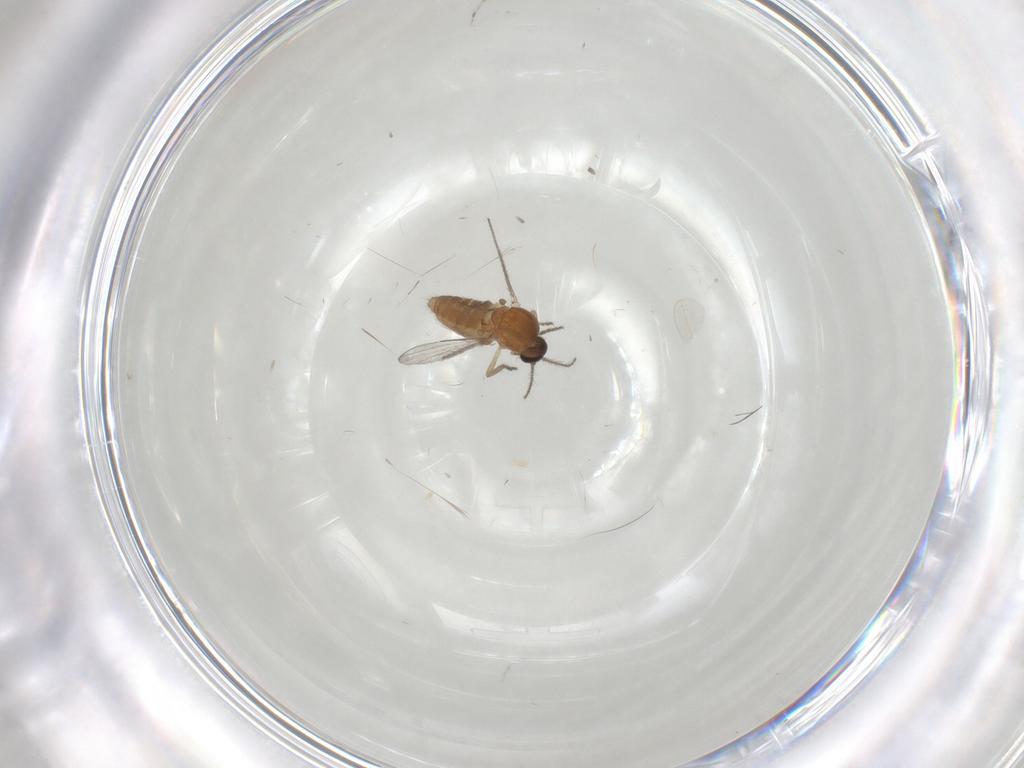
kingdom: Animalia
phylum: Arthropoda
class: Insecta
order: Diptera
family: Ceratopogonidae
